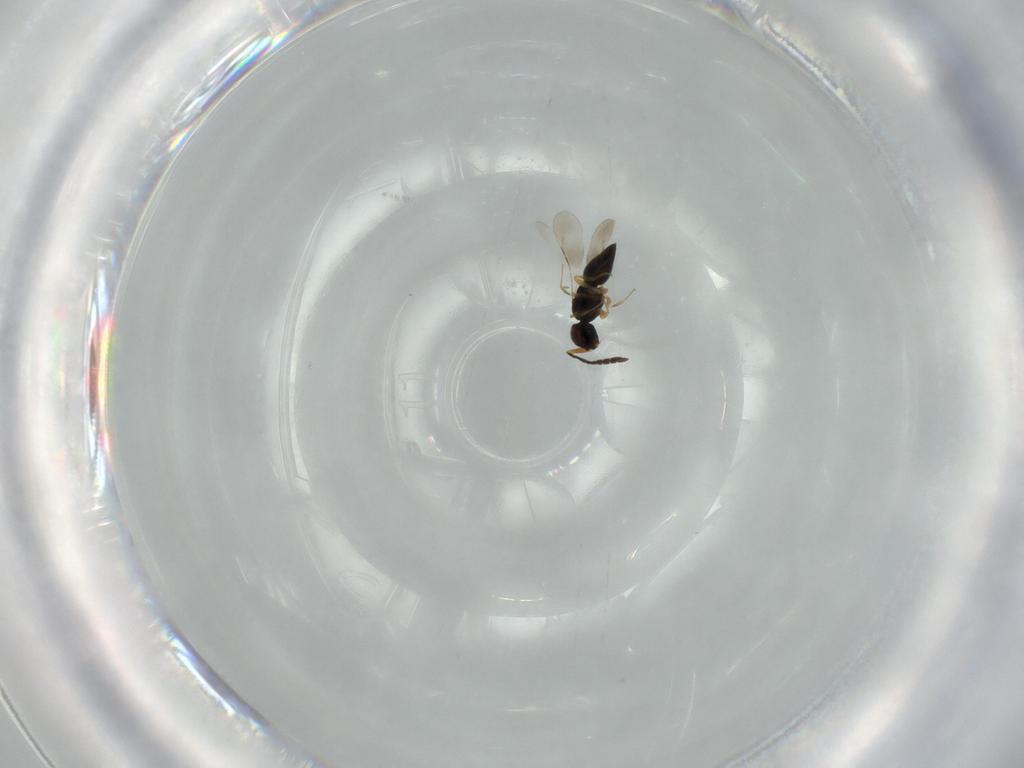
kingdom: Animalia
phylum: Arthropoda
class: Insecta
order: Hymenoptera
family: Ceraphronidae
